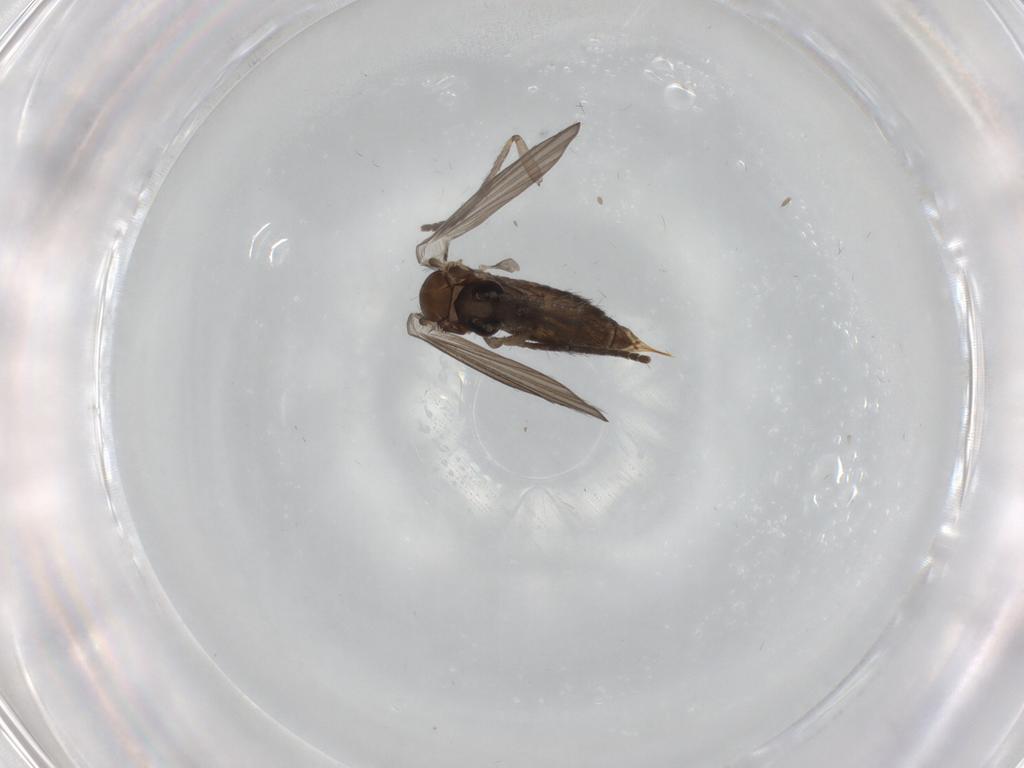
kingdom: Animalia
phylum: Arthropoda
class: Insecta
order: Diptera
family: Psychodidae
